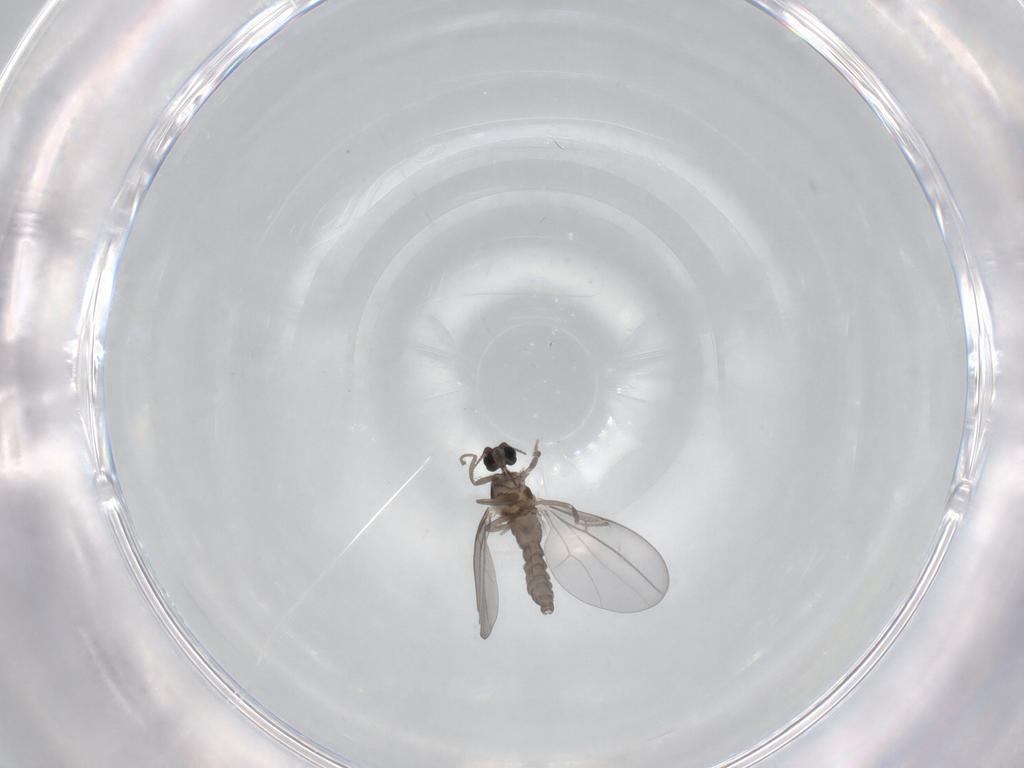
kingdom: Animalia
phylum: Arthropoda
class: Insecta
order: Diptera
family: Cecidomyiidae
